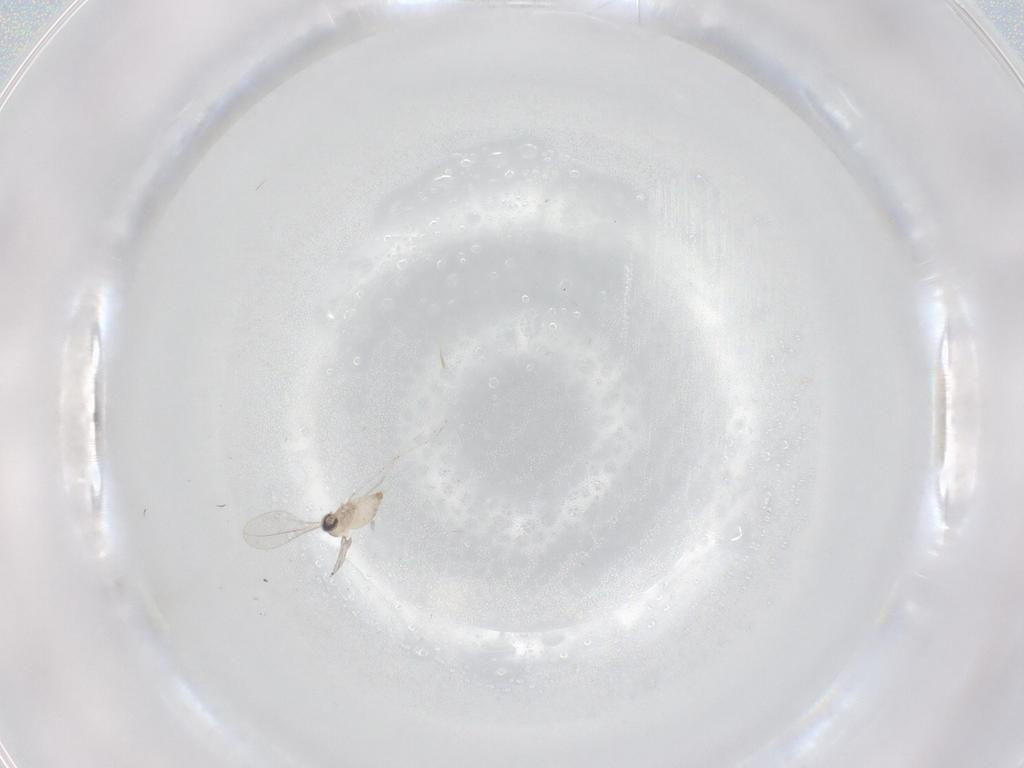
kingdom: Animalia
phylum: Arthropoda
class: Insecta
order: Diptera
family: Cecidomyiidae
